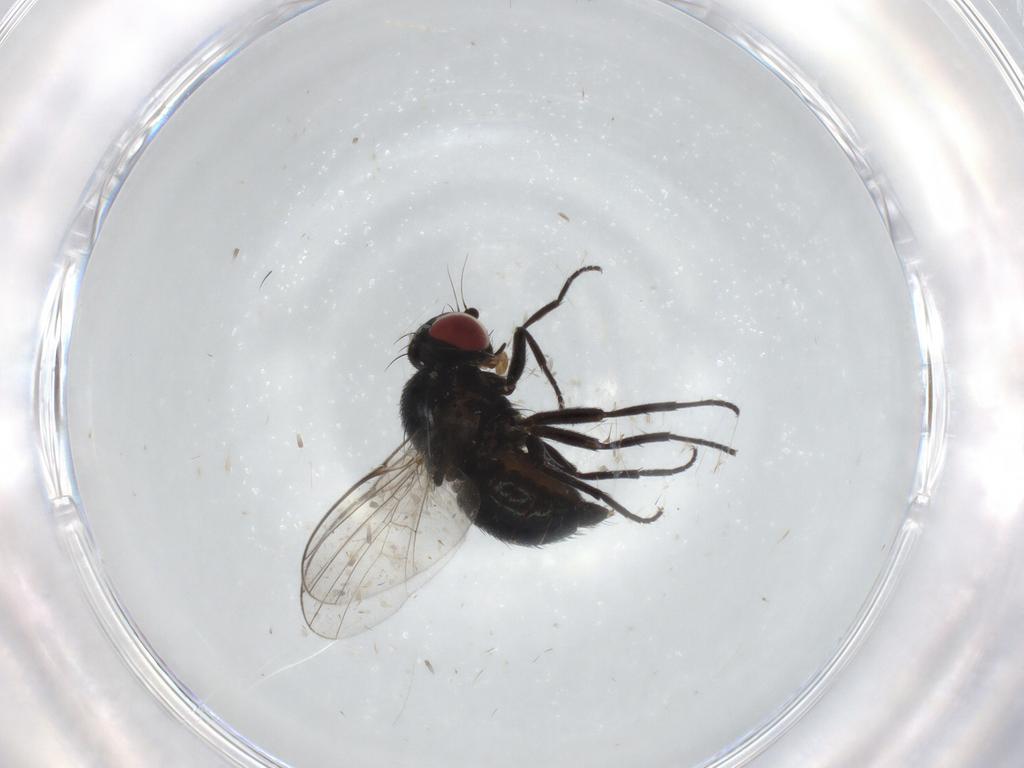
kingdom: Animalia
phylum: Arthropoda
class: Insecta
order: Diptera
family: Agromyzidae
